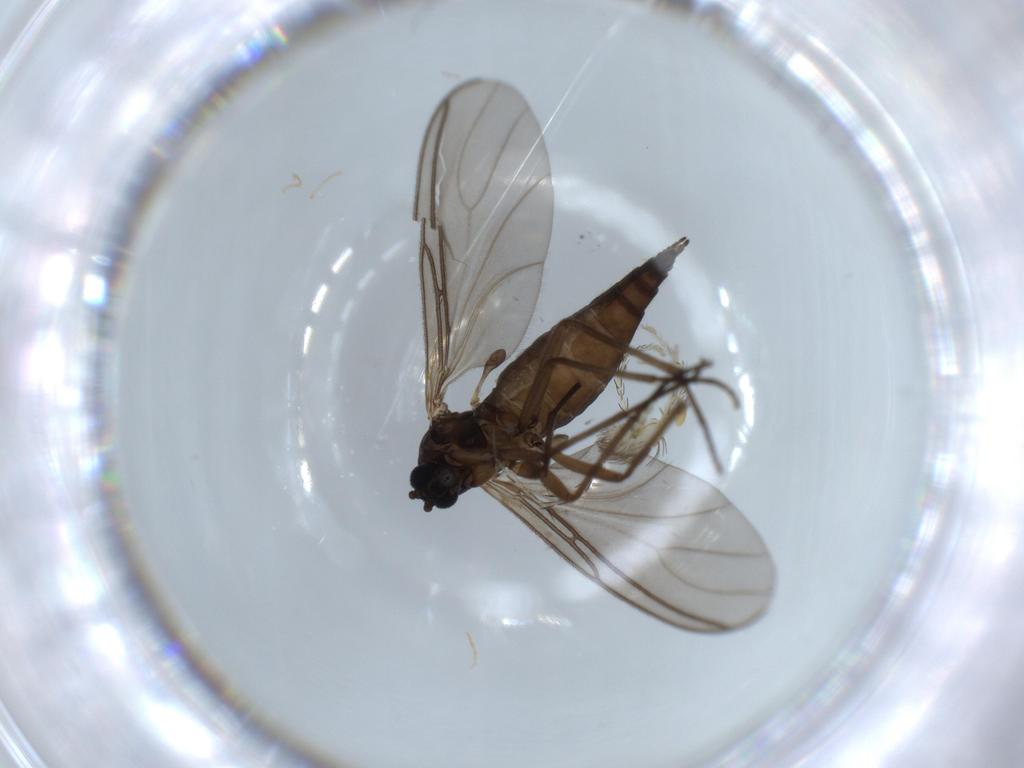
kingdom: Animalia
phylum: Arthropoda
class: Insecta
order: Diptera
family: Sciaridae
